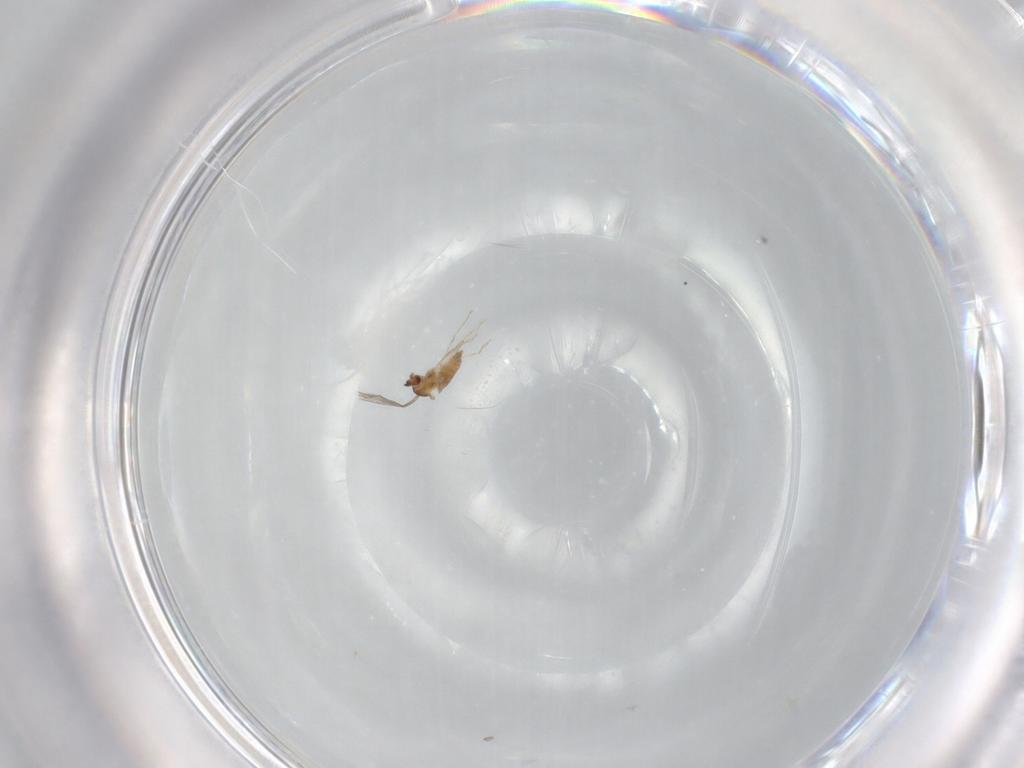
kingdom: Animalia
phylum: Arthropoda
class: Insecta
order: Diptera
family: Cecidomyiidae
